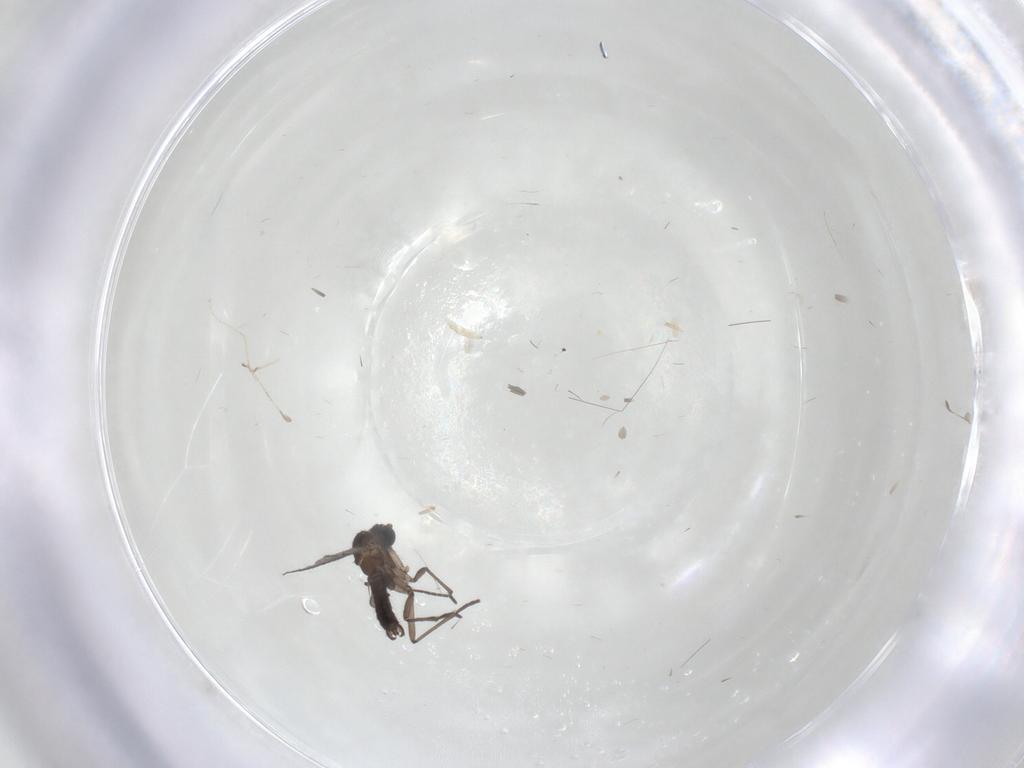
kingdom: Animalia
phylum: Arthropoda
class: Insecta
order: Diptera
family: Cecidomyiidae
